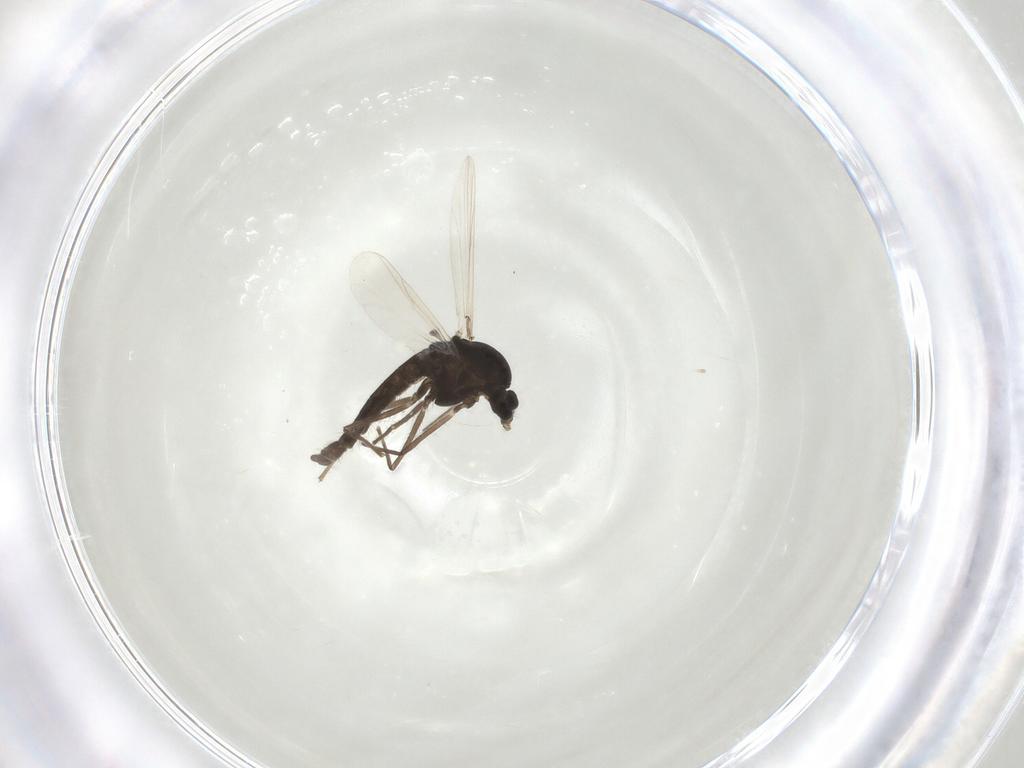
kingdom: Animalia
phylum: Arthropoda
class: Insecta
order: Diptera
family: Chironomidae
